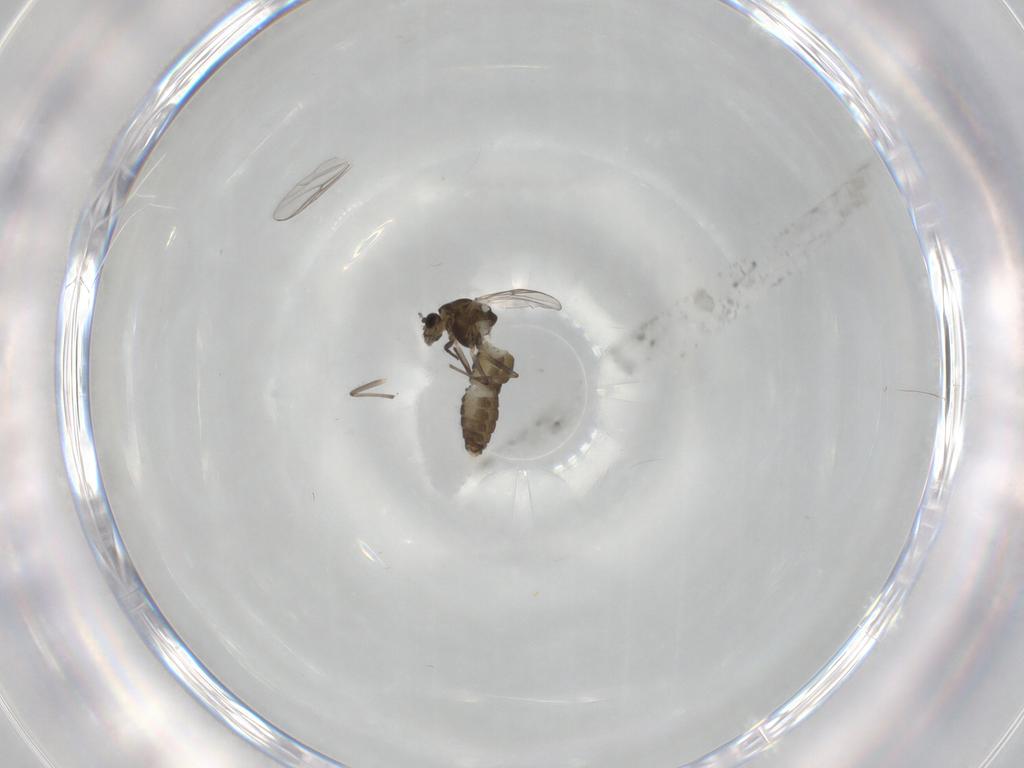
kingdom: Animalia
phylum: Arthropoda
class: Insecta
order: Diptera
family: Chironomidae
